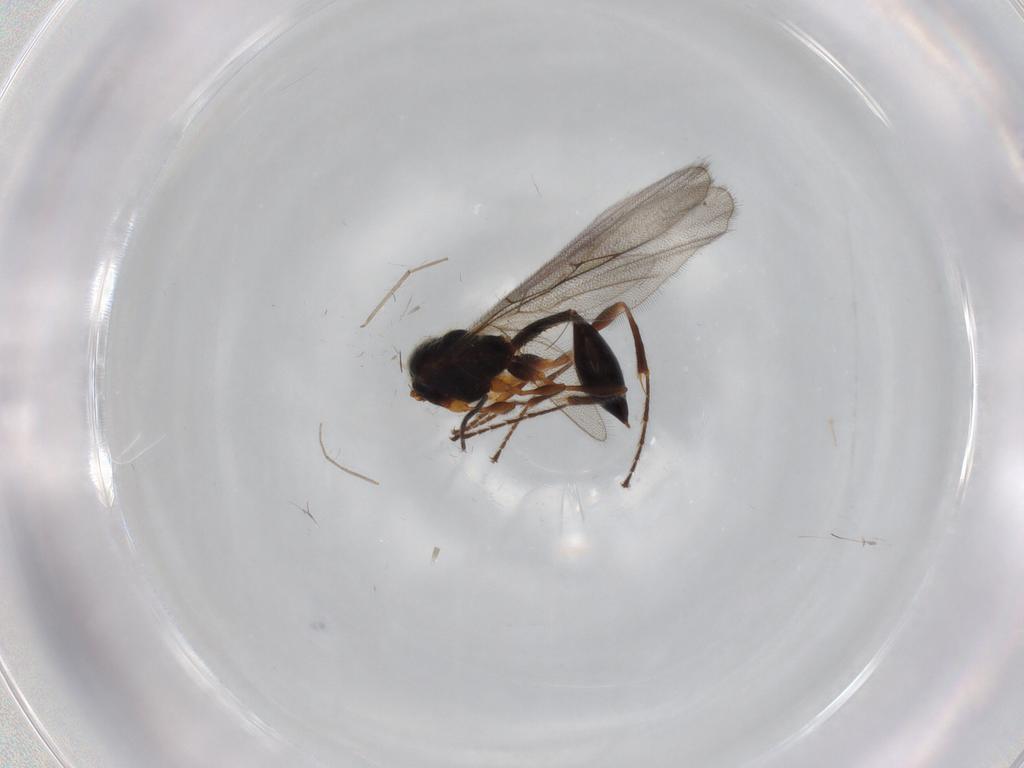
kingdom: Animalia
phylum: Arthropoda
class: Insecta
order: Hymenoptera
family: Diapriidae
